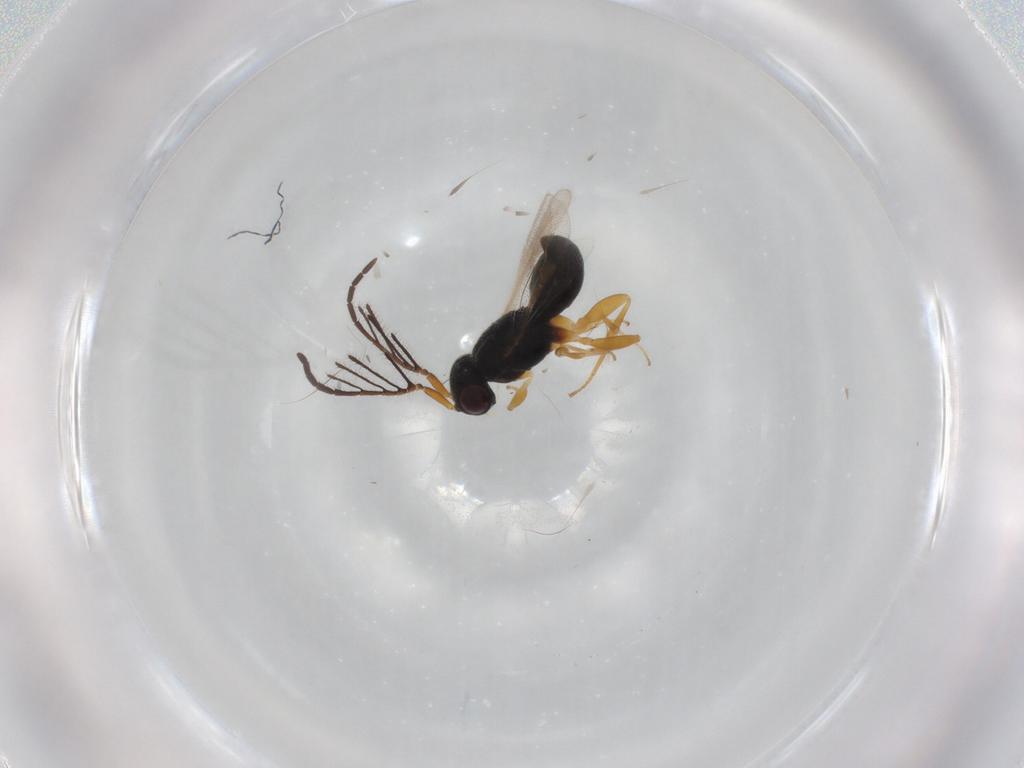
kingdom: Animalia
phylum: Arthropoda
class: Insecta
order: Hymenoptera
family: Megaspilidae
